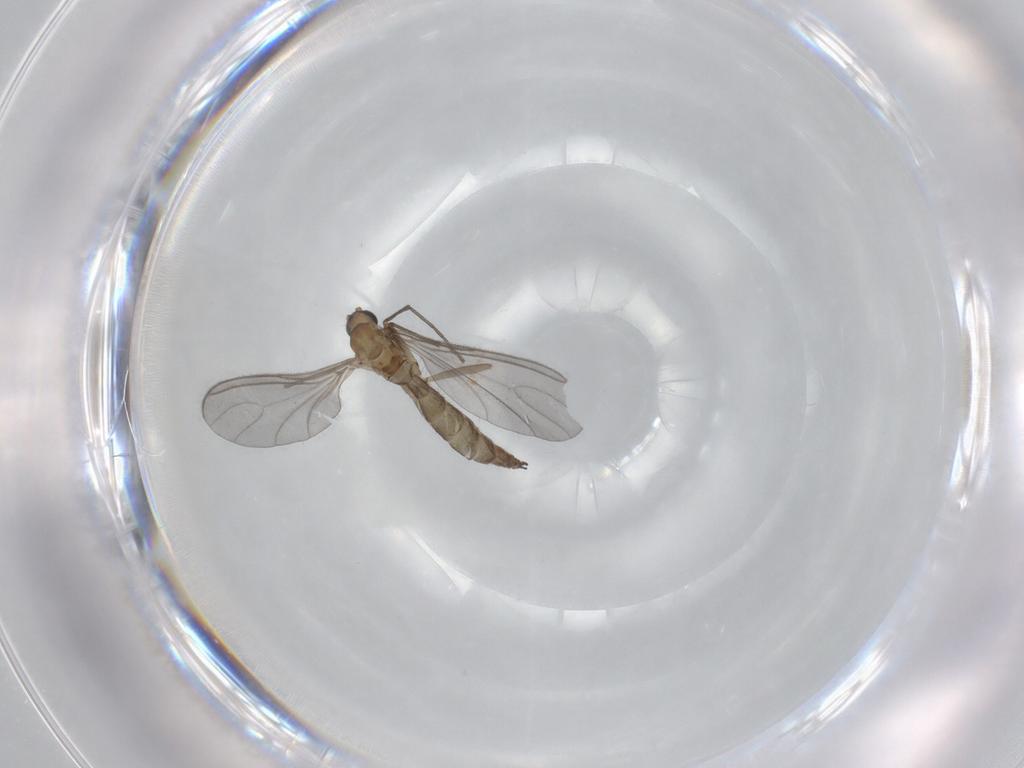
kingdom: Animalia
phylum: Arthropoda
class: Insecta
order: Diptera
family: Sciaridae
